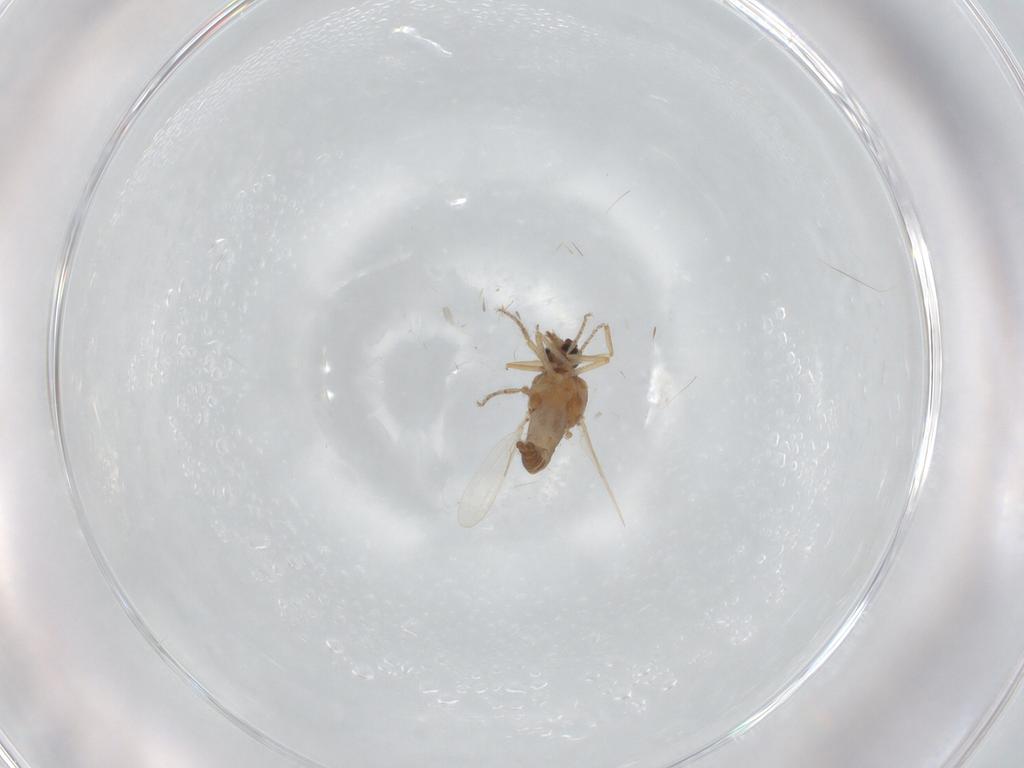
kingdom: Animalia
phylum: Arthropoda
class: Insecta
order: Diptera
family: Ceratopogonidae
